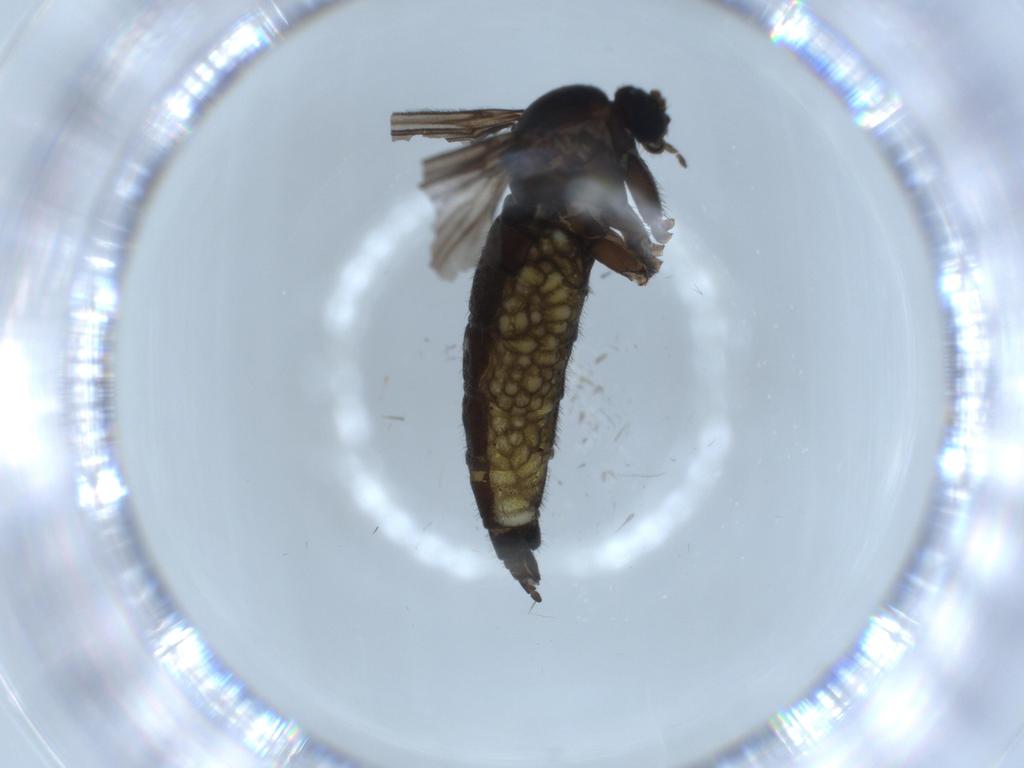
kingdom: Animalia
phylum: Arthropoda
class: Insecta
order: Diptera
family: Sciaridae
